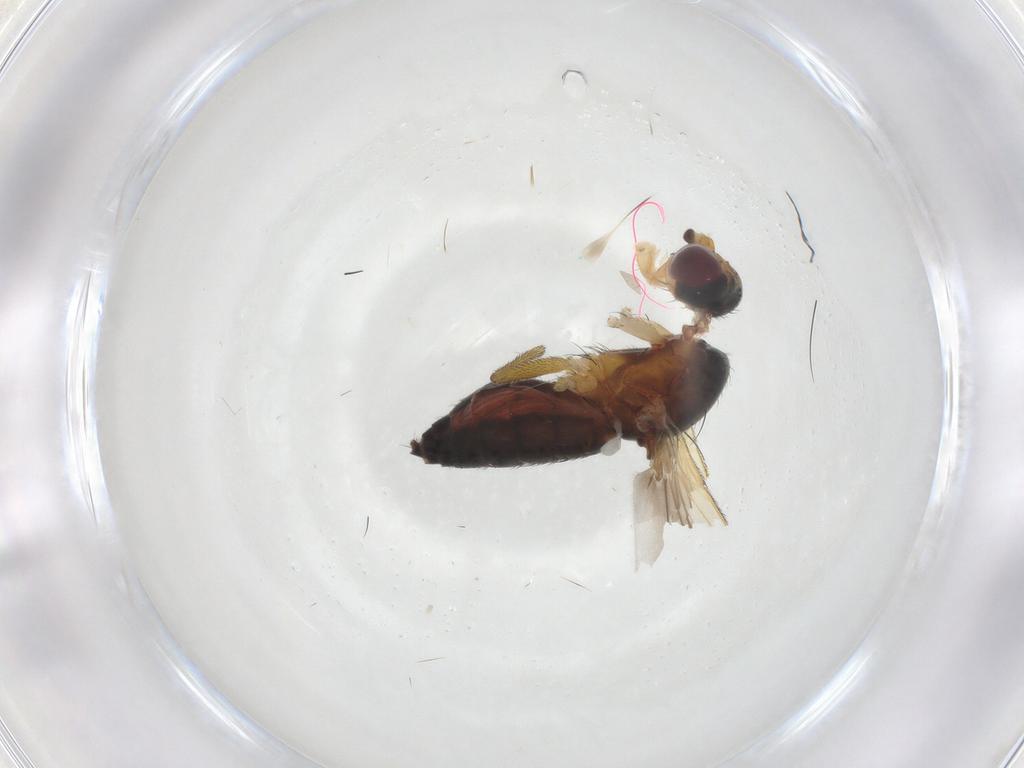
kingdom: Animalia
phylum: Arthropoda
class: Insecta
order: Diptera
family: Heleomyzidae
